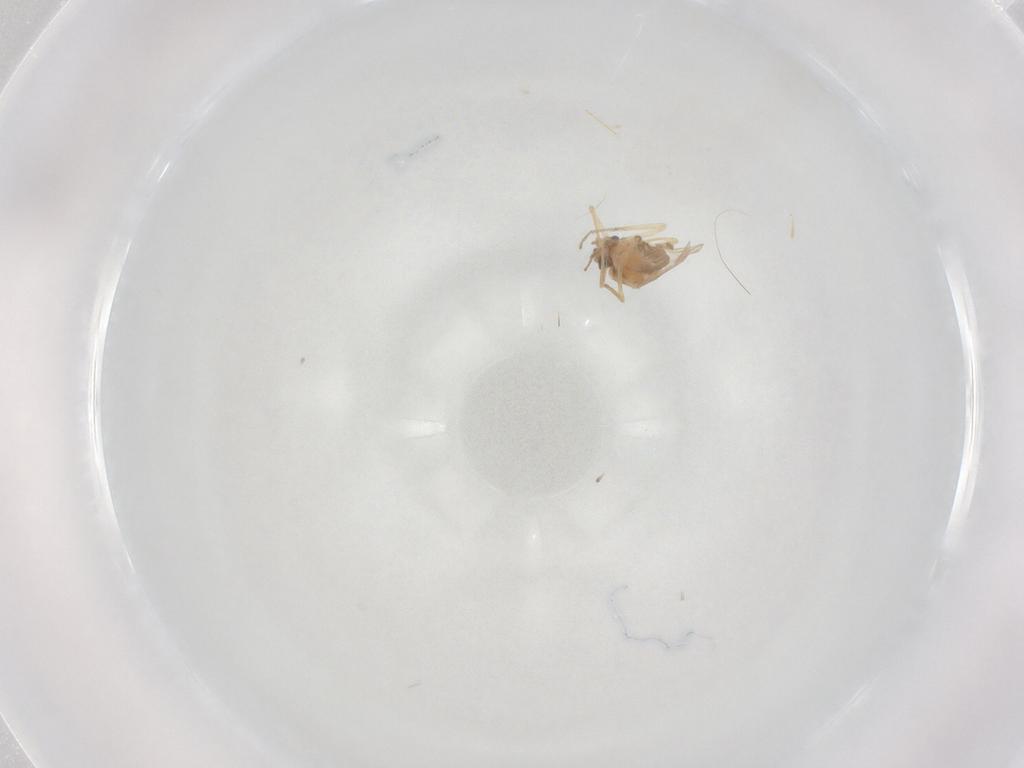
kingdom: Animalia
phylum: Arthropoda
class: Insecta
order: Diptera
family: Ceratopogonidae
